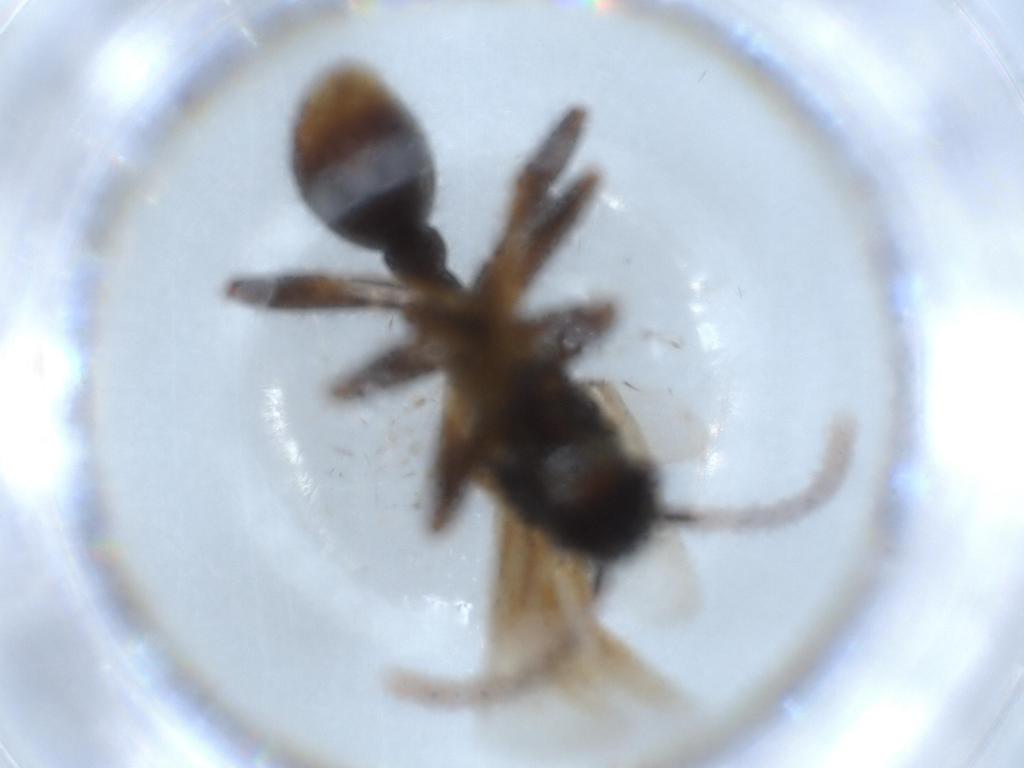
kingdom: Animalia
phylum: Arthropoda
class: Insecta
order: Hymenoptera
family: Formicidae
